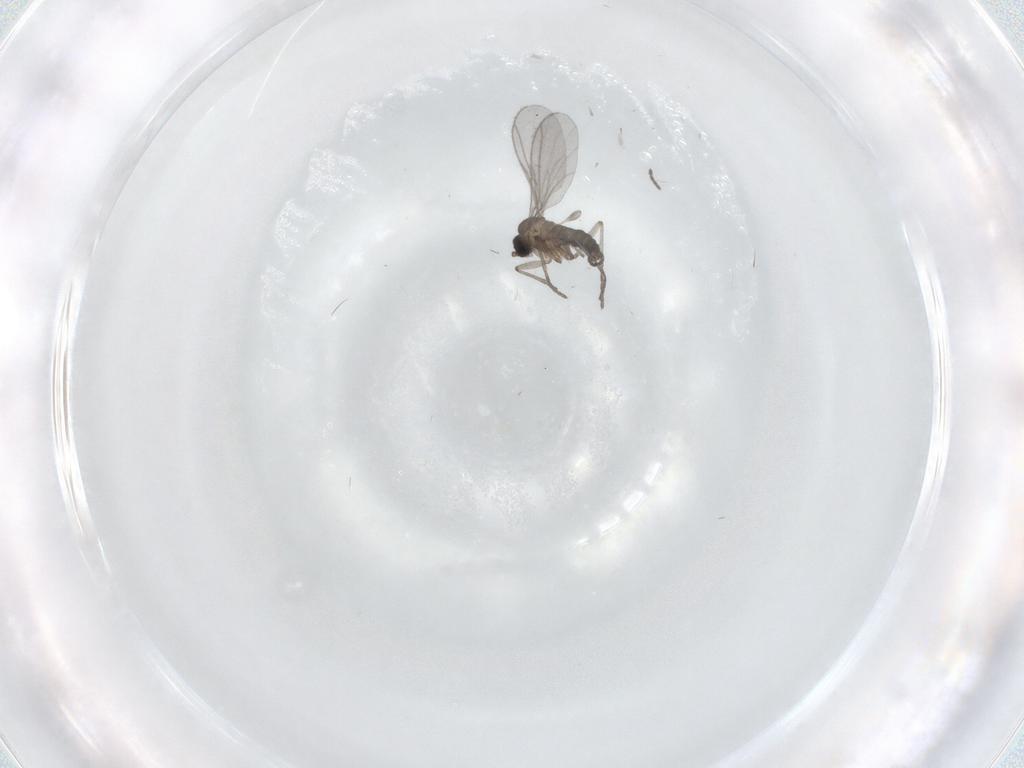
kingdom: Animalia
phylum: Arthropoda
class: Insecta
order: Diptera
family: Sciaridae
